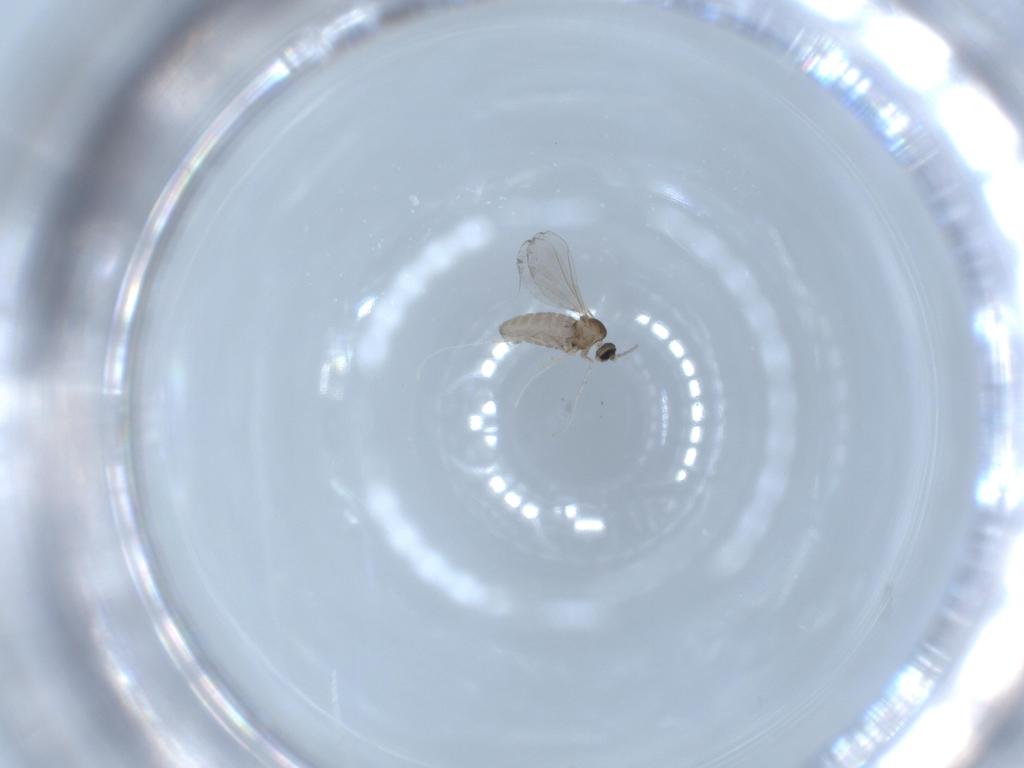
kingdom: Animalia
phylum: Arthropoda
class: Insecta
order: Diptera
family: Cecidomyiidae
